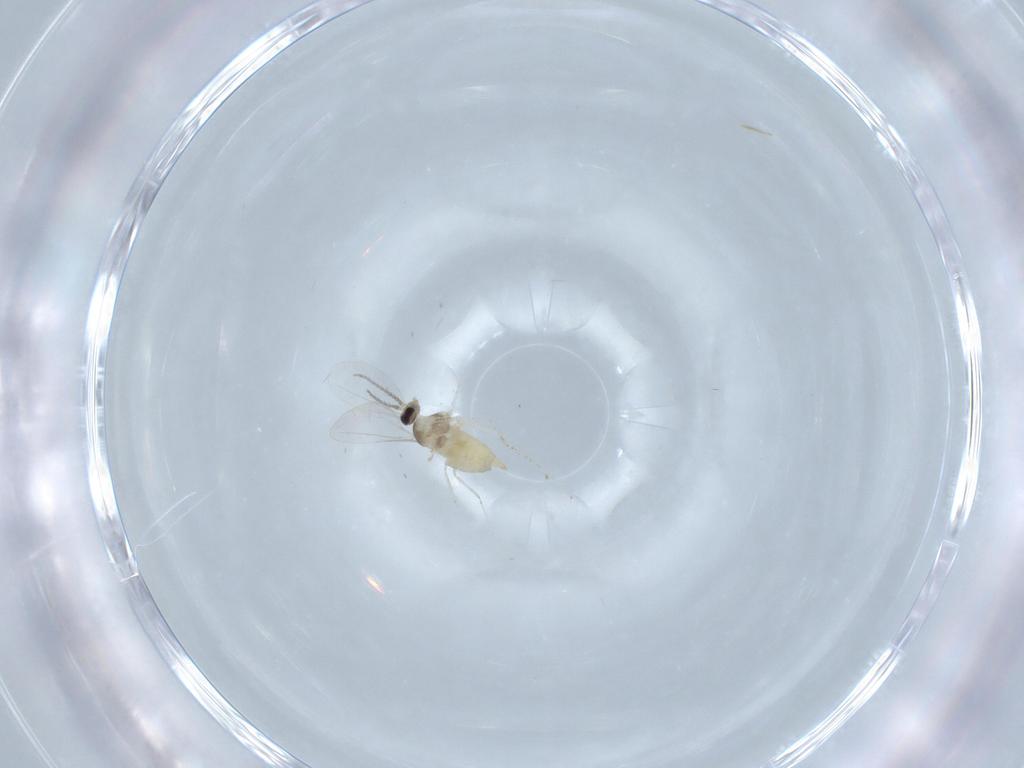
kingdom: Animalia
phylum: Arthropoda
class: Insecta
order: Diptera
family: Cecidomyiidae
